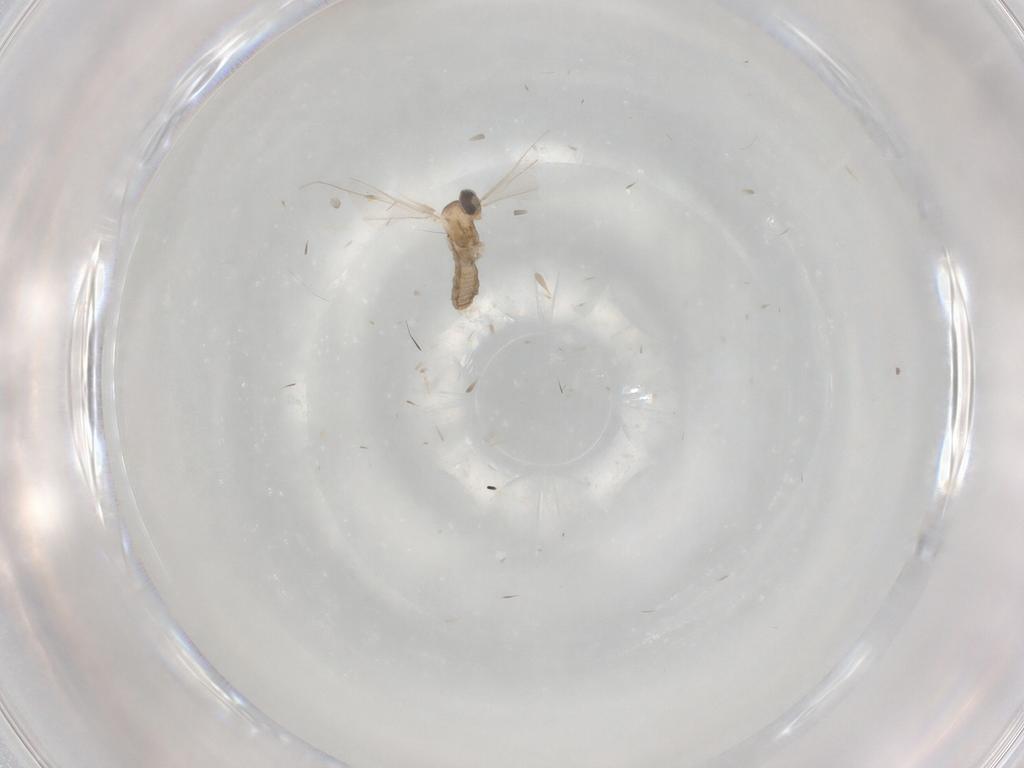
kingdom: Animalia
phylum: Arthropoda
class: Insecta
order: Diptera
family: Cecidomyiidae
